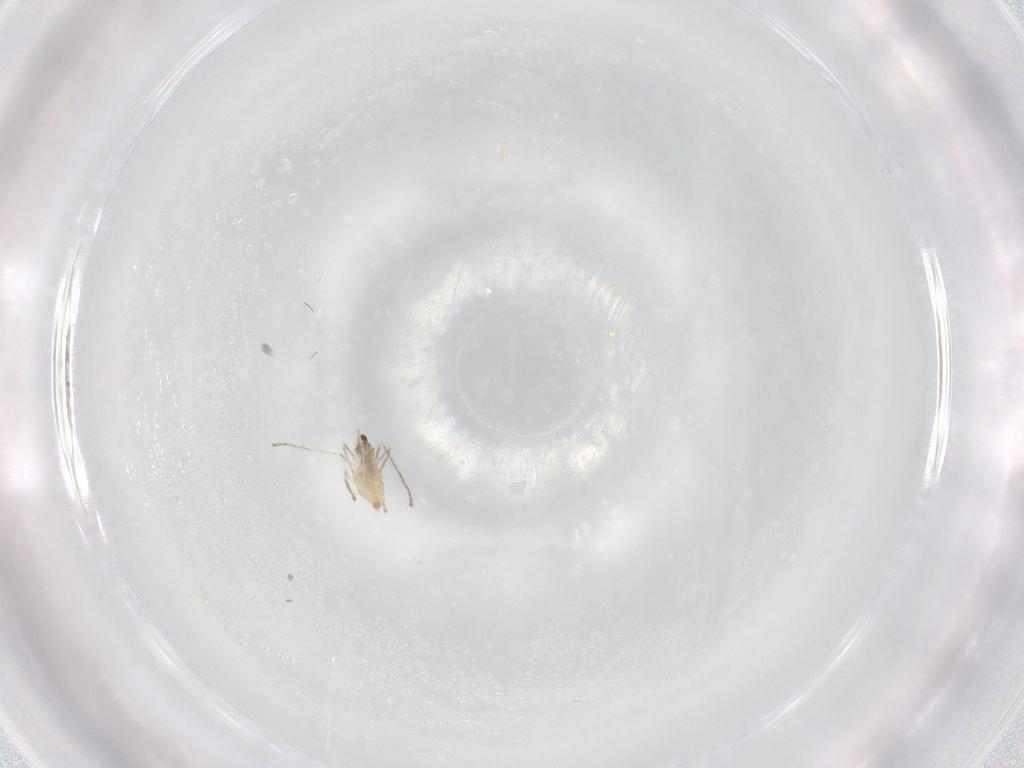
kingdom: Animalia
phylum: Arthropoda
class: Insecta
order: Diptera
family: Cecidomyiidae
